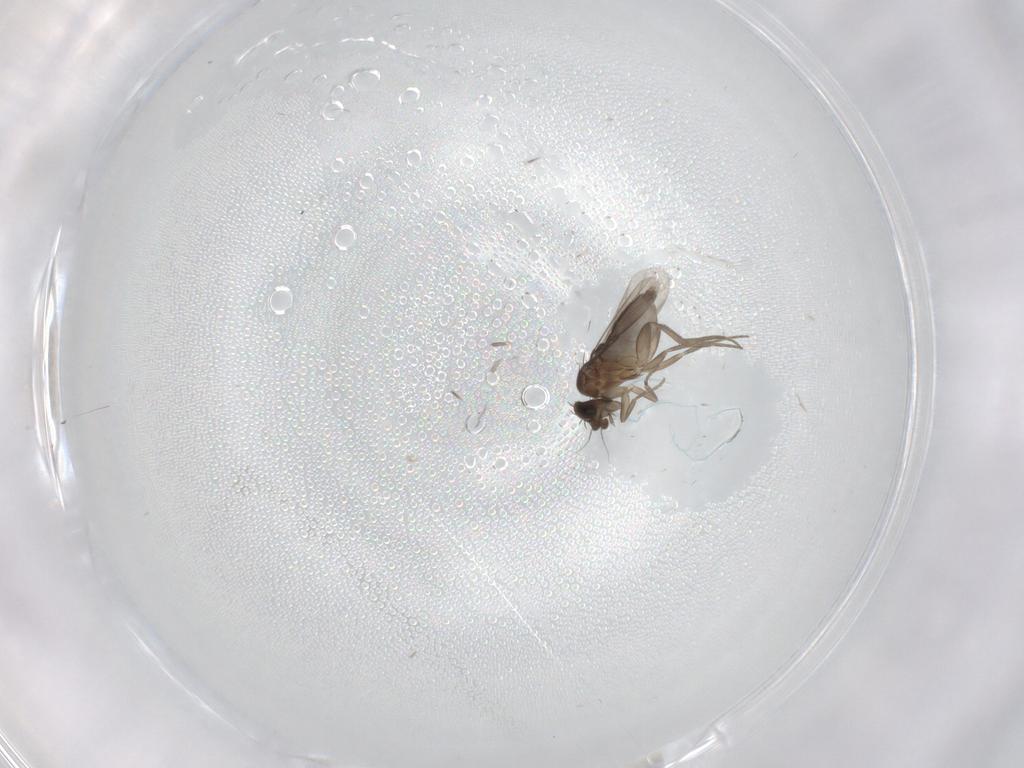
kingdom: Animalia
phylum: Arthropoda
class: Insecta
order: Diptera
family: Phoridae
